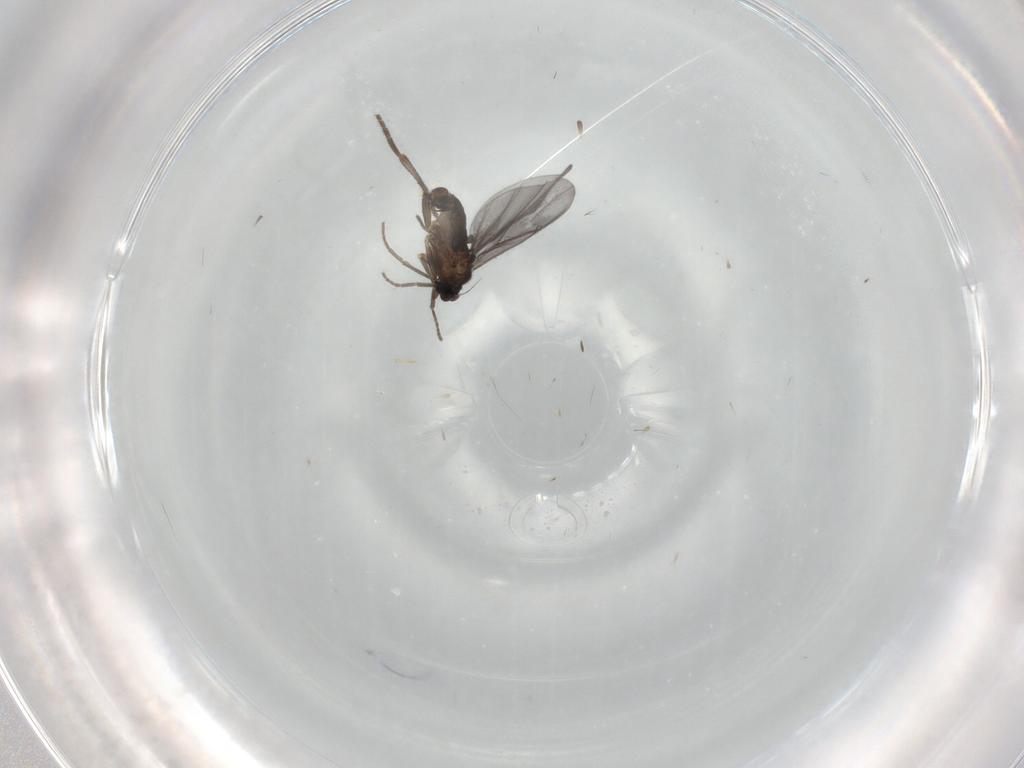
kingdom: Animalia
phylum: Arthropoda
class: Insecta
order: Diptera
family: Phoridae
